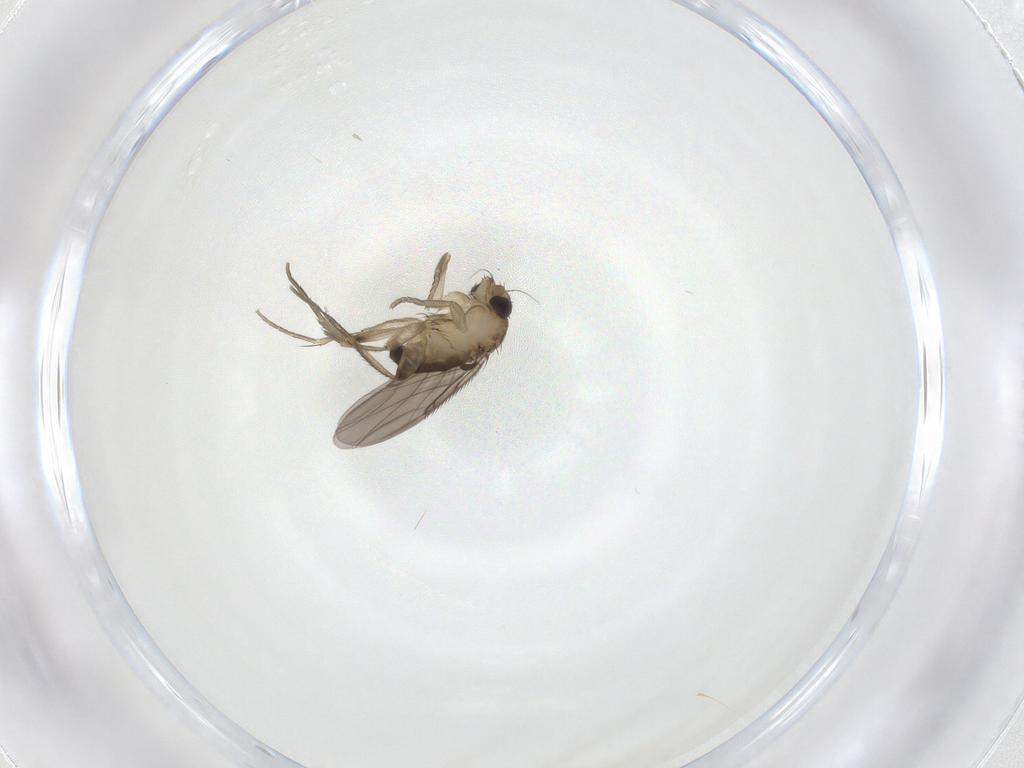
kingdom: Animalia
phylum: Arthropoda
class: Insecta
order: Diptera
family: Phoridae
